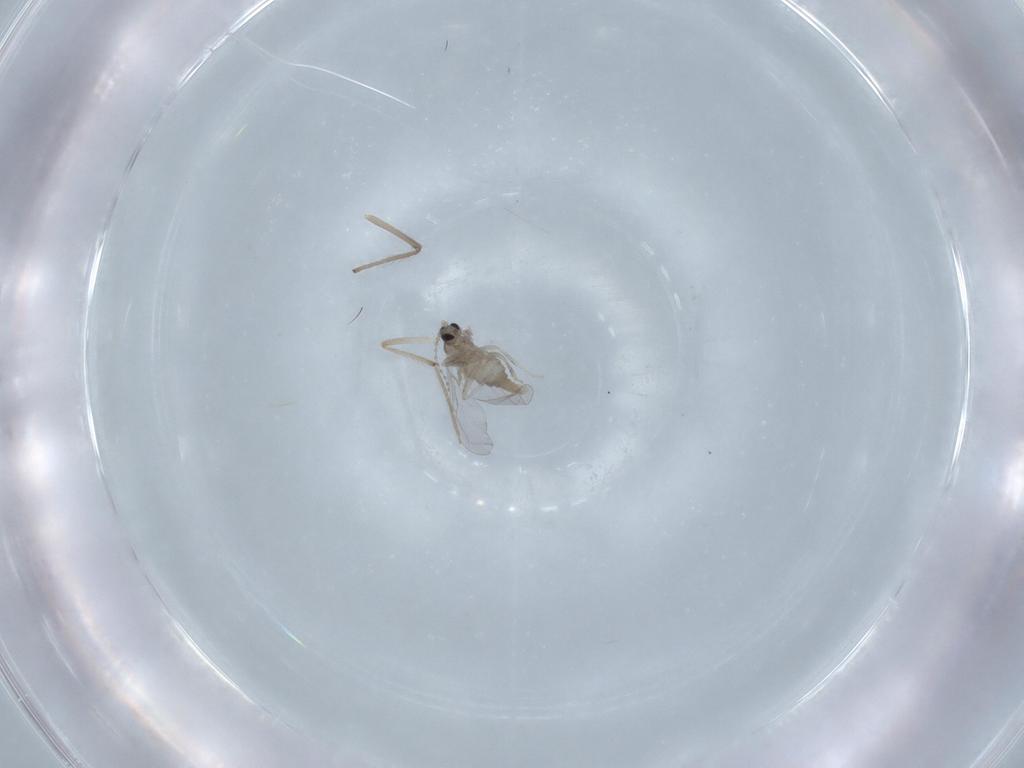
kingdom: Animalia
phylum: Arthropoda
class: Insecta
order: Diptera
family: Cecidomyiidae
